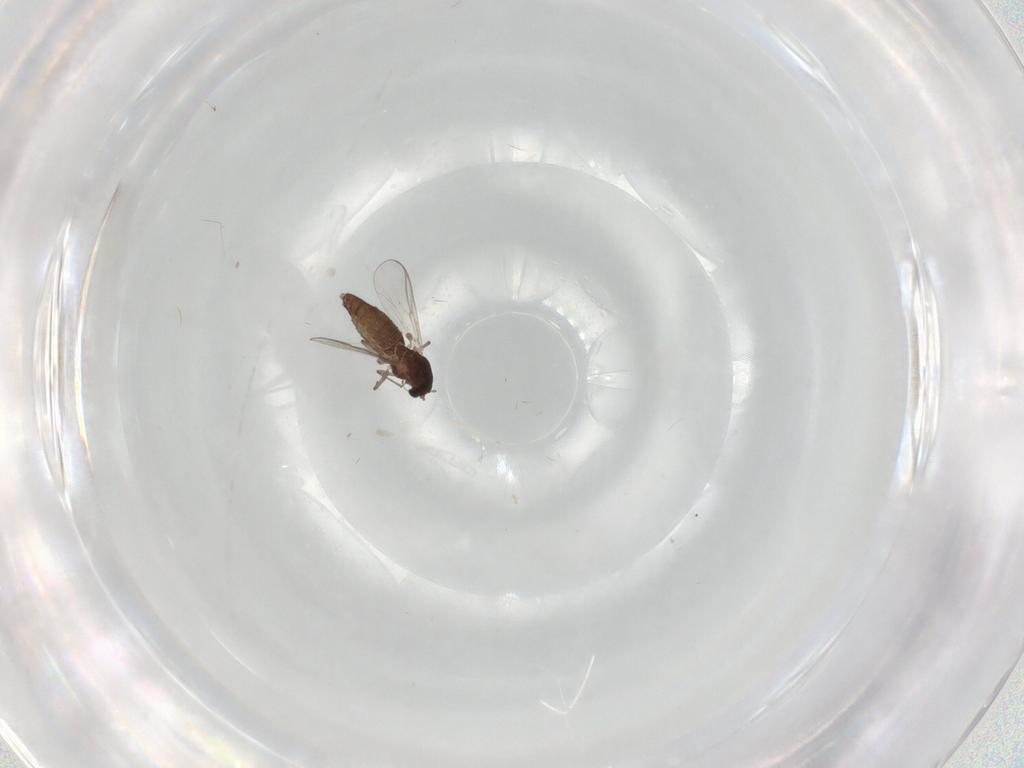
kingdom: Animalia
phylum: Arthropoda
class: Insecta
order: Diptera
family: Chironomidae
